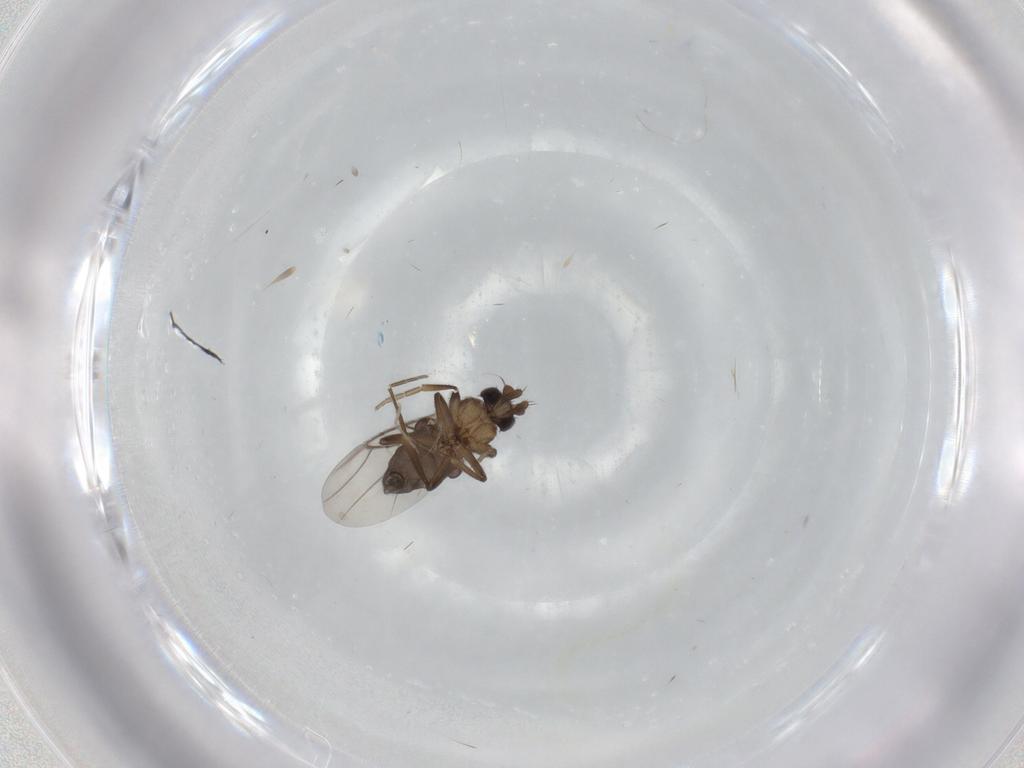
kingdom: Animalia
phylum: Arthropoda
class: Insecta
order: Diptera
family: Phoridae
